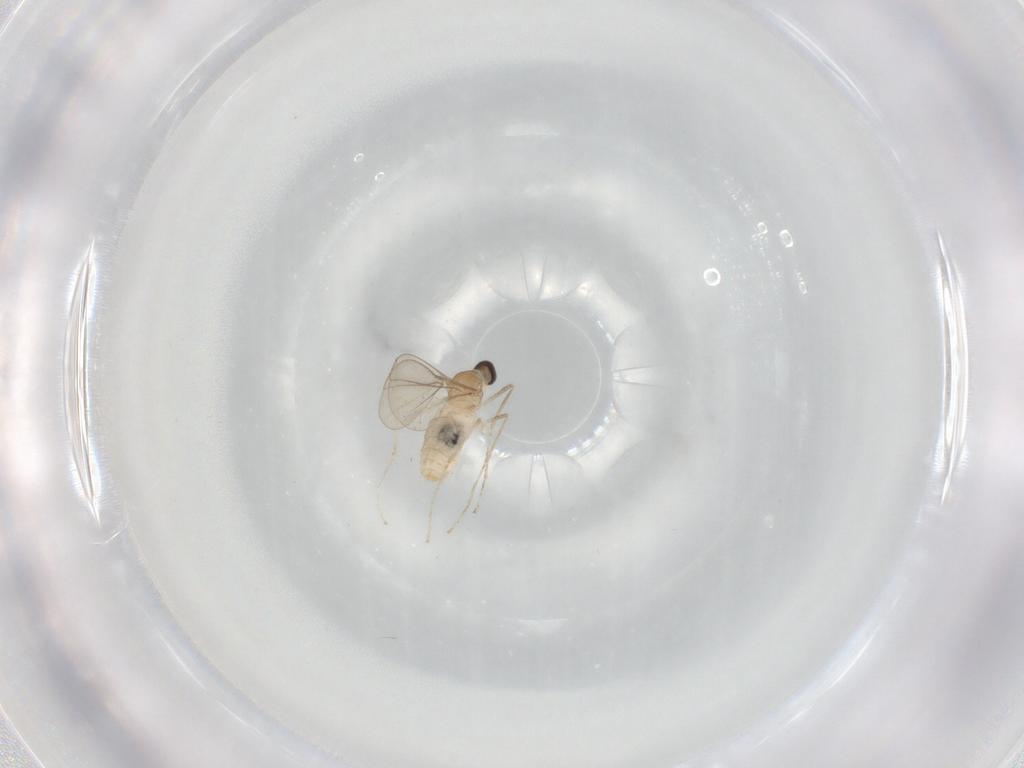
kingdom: Animalia
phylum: Arthropoda
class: Insecta
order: Diptera
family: Cecidomyiidae
